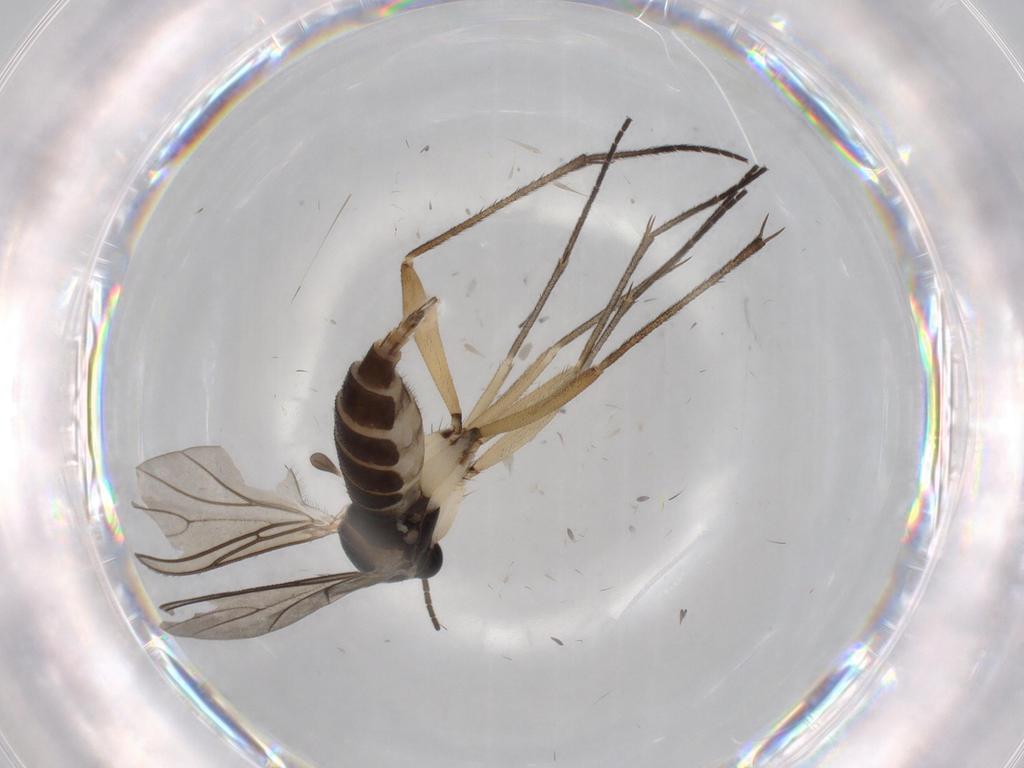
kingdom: Animalia
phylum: Arthropoda
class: Insecta
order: Diptera
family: Sciaridae
